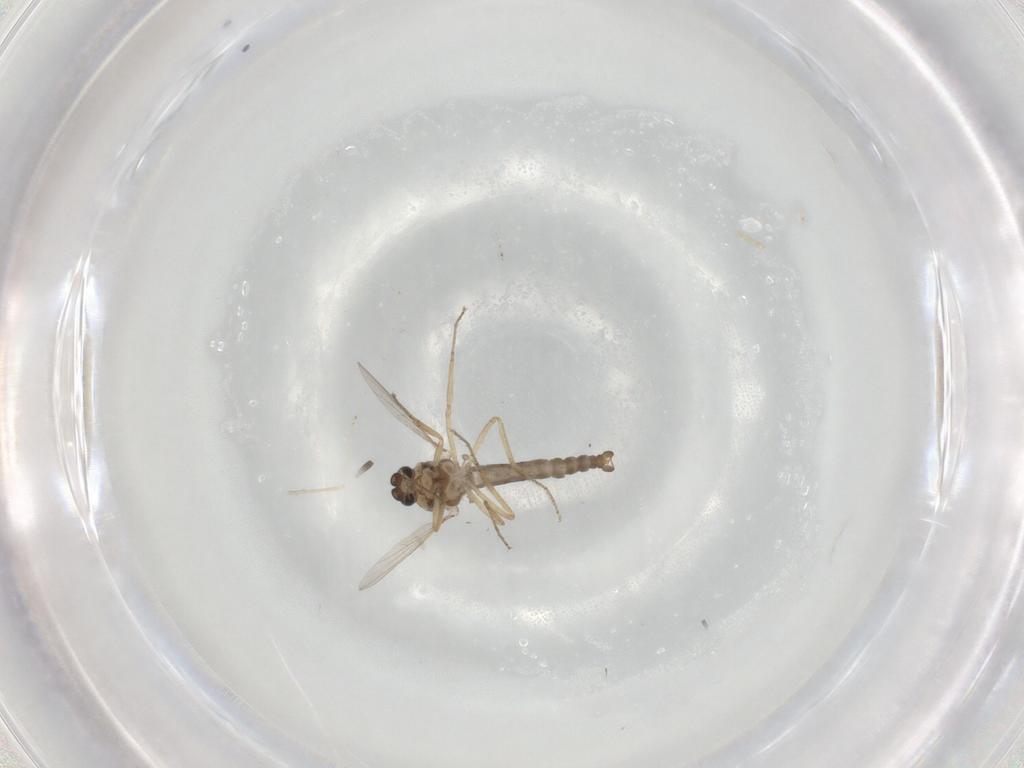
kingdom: Animalia
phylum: Arthropoda
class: Insecta
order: Diptera
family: Ceratopogonidae
